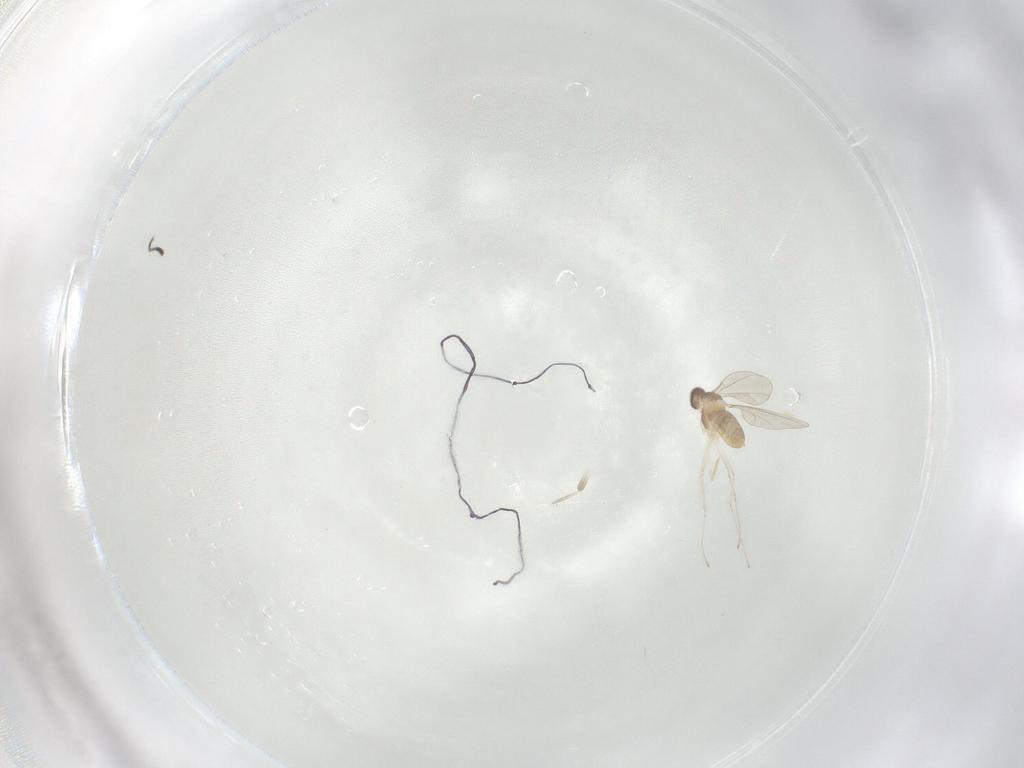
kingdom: Animalia
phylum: Arthropoda
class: Insecta
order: Diptera
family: Cecidomyiidae
